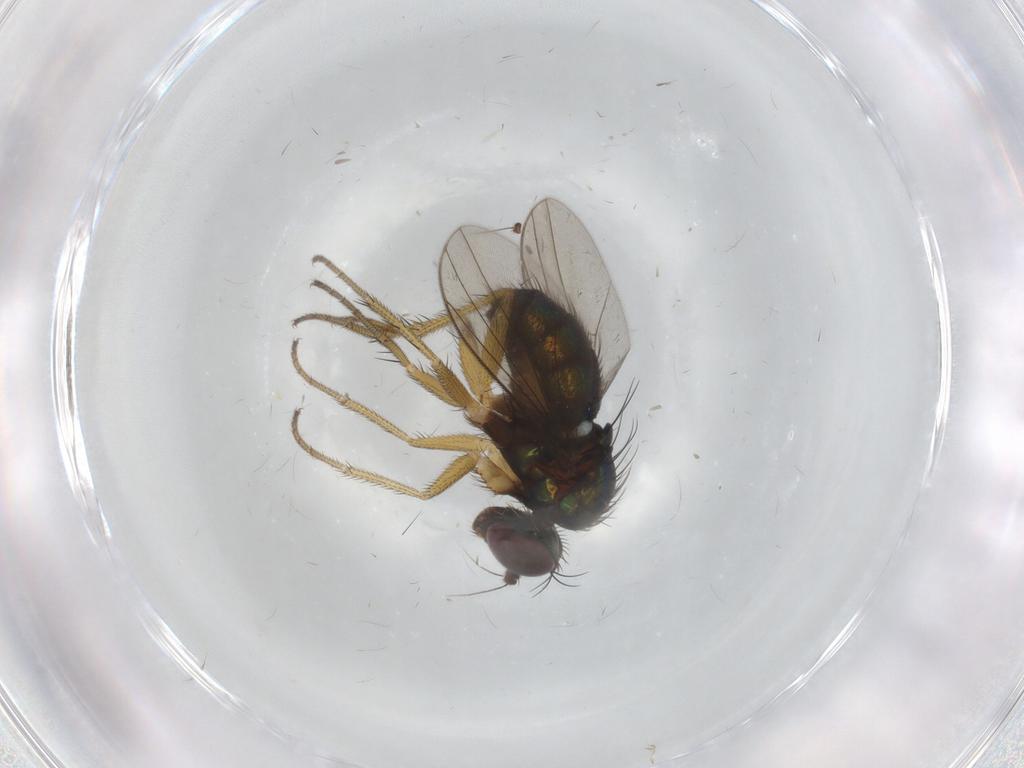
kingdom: Animalia
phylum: Arthropoda
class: Insecta
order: Diptera
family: Dolichopodidae
